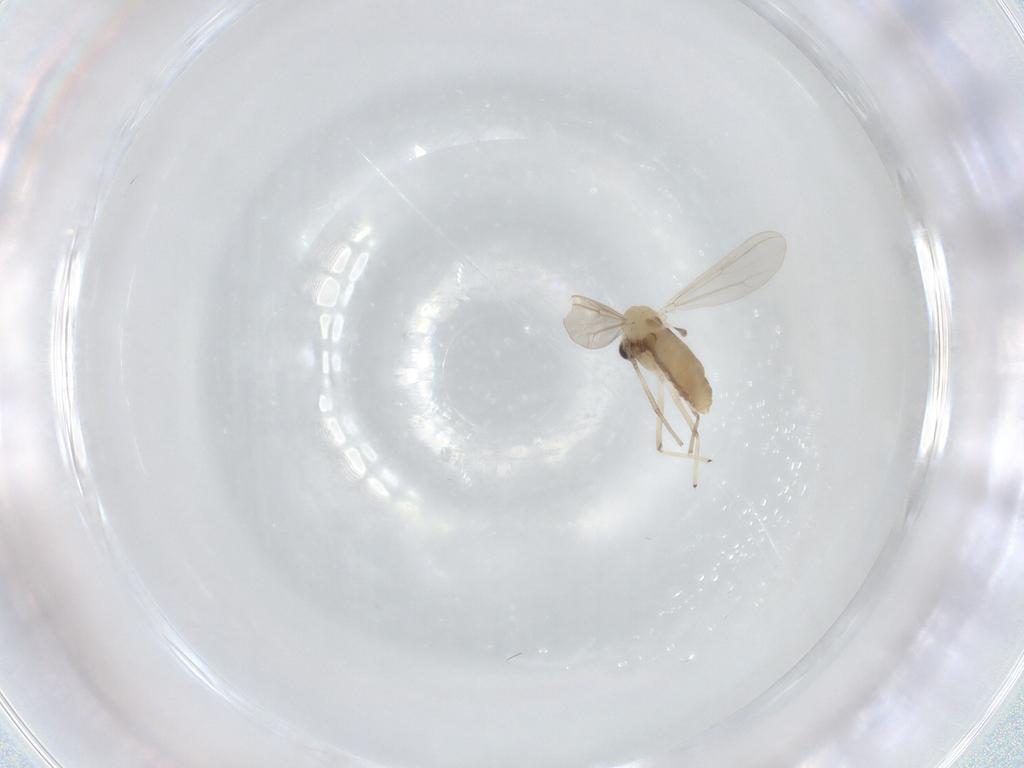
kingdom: Animalia
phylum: Arthropoda
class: Insecta
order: Diptera
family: Chironomidae
